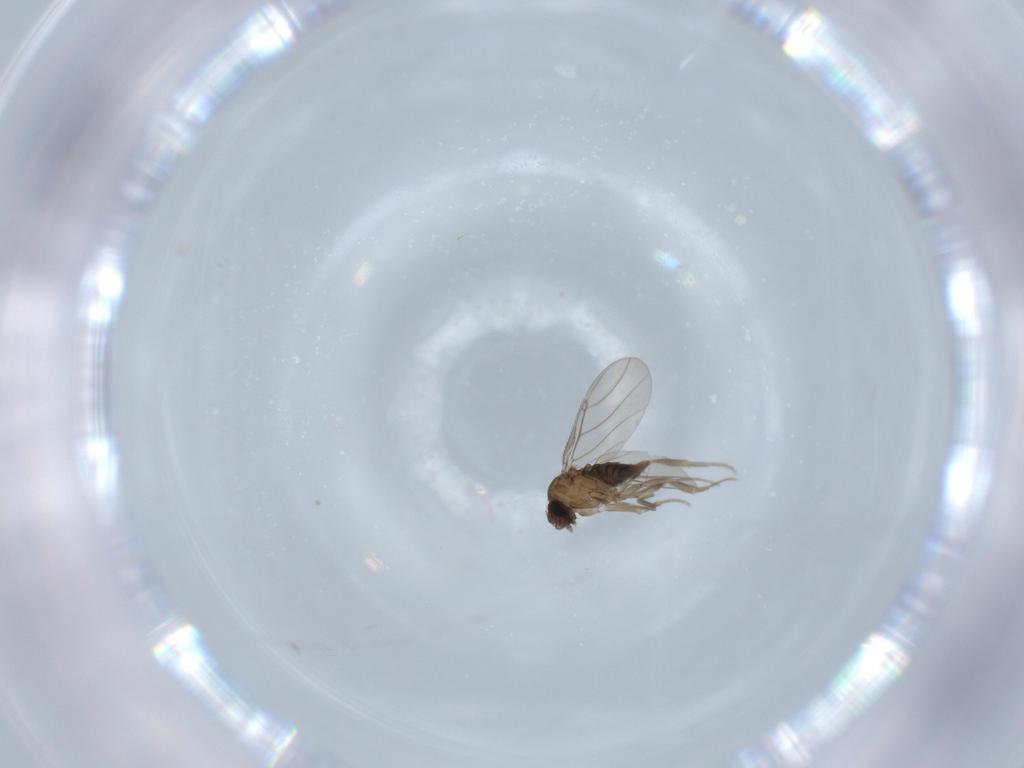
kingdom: Animalia
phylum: Arthropoda
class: Insecta
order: Diptera
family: Phoridae
